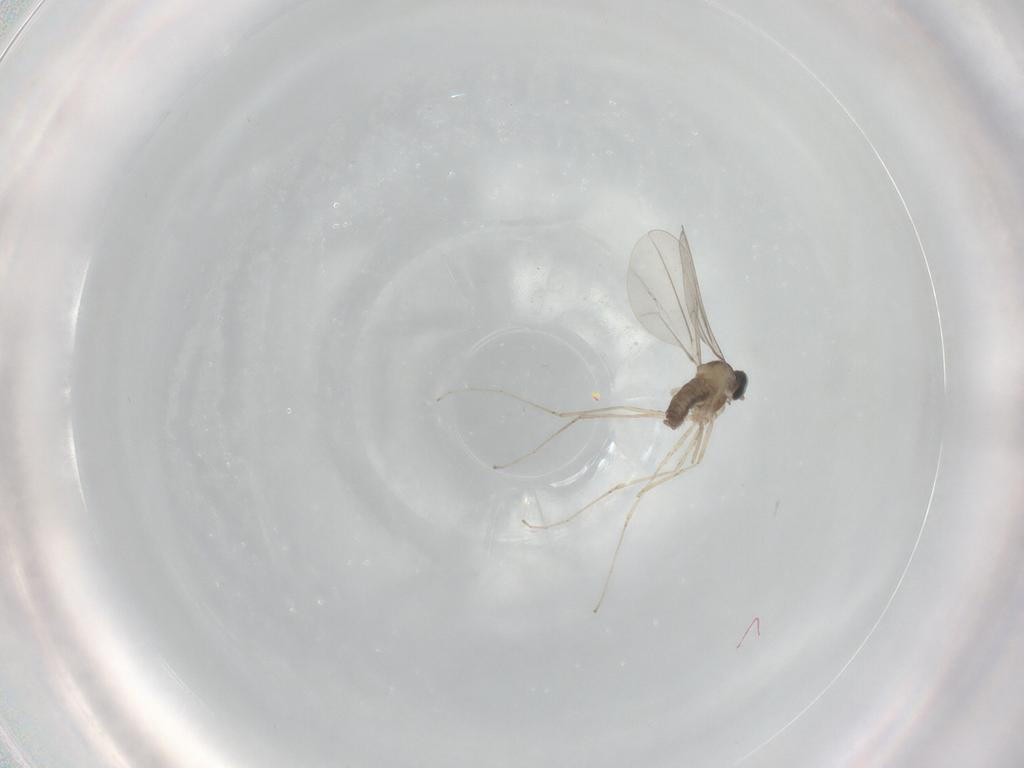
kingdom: Animalia
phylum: Arthropoda
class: Insecta
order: Diptera
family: Cecidomyiidae
